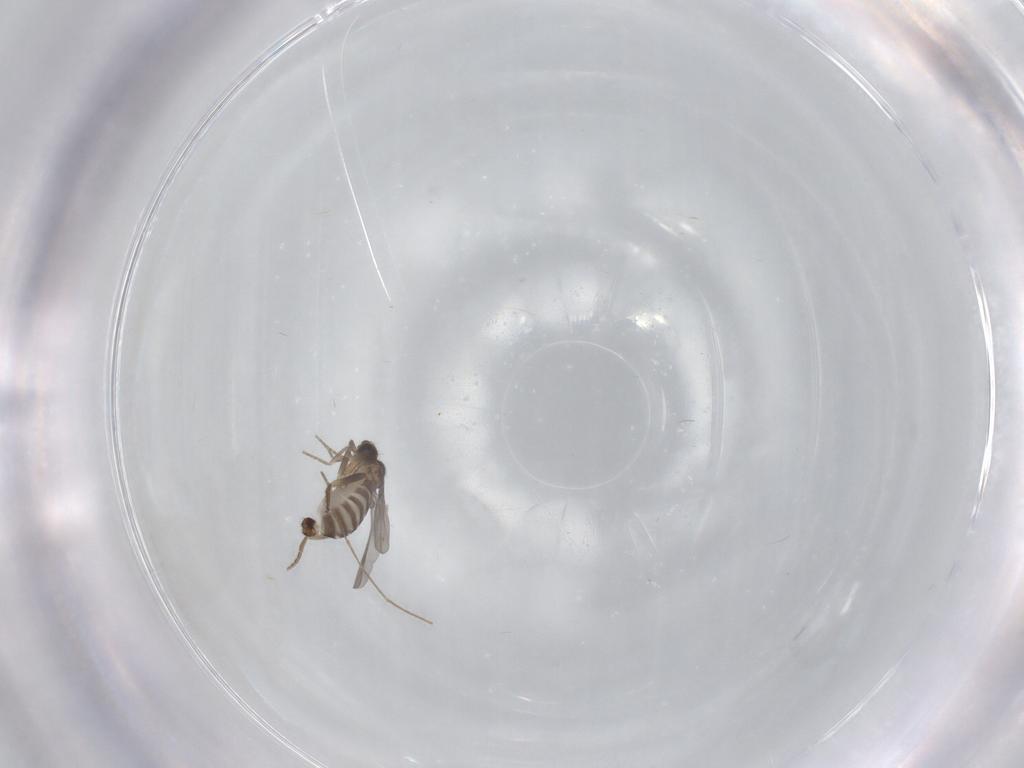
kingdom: Animalia
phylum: Arthropoda
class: Insecta
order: Diptera
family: Chironomidae
